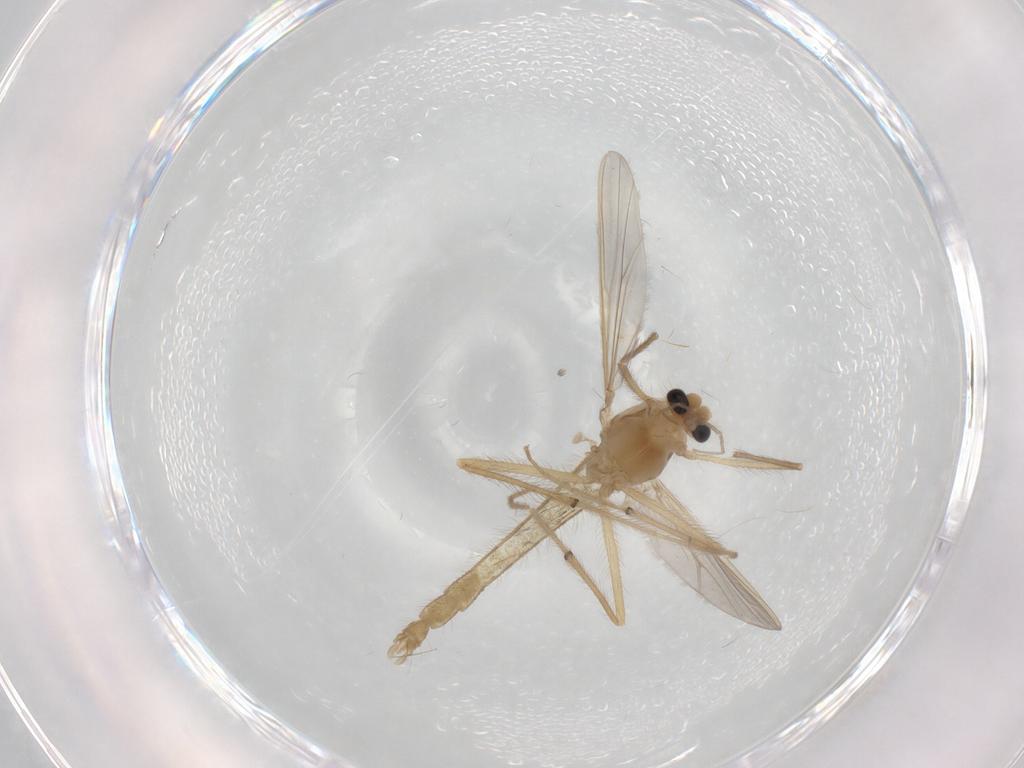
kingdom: Animalia
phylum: Arthropoda
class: Insecta
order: Diptera
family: Chironomidae
